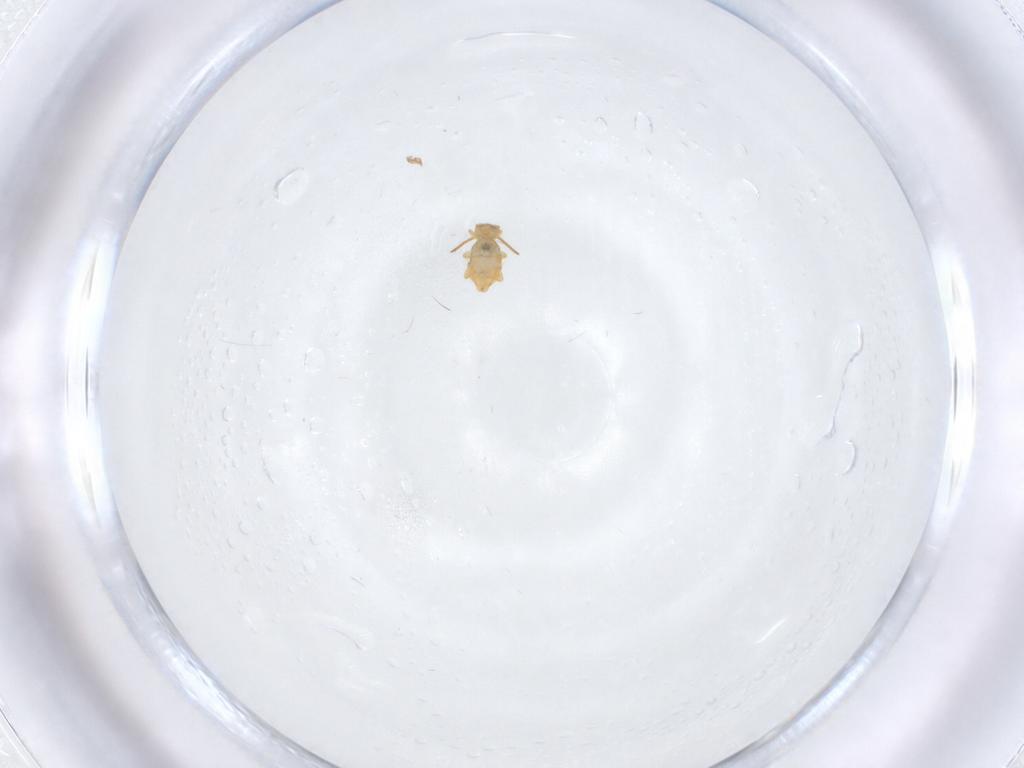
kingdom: Animalia
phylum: Arthropoda
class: Collembola
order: Symphypleona
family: Katiannidae
